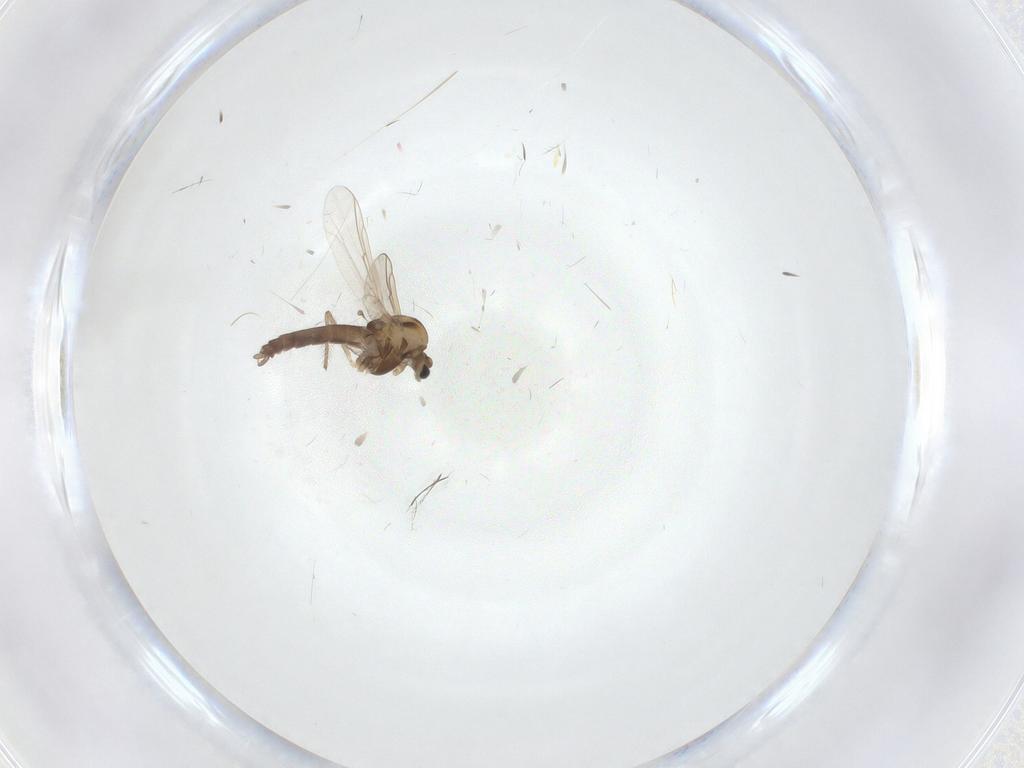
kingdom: Animalia
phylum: Arthropoda
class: Insecta
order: Diptera
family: Chironomidae
